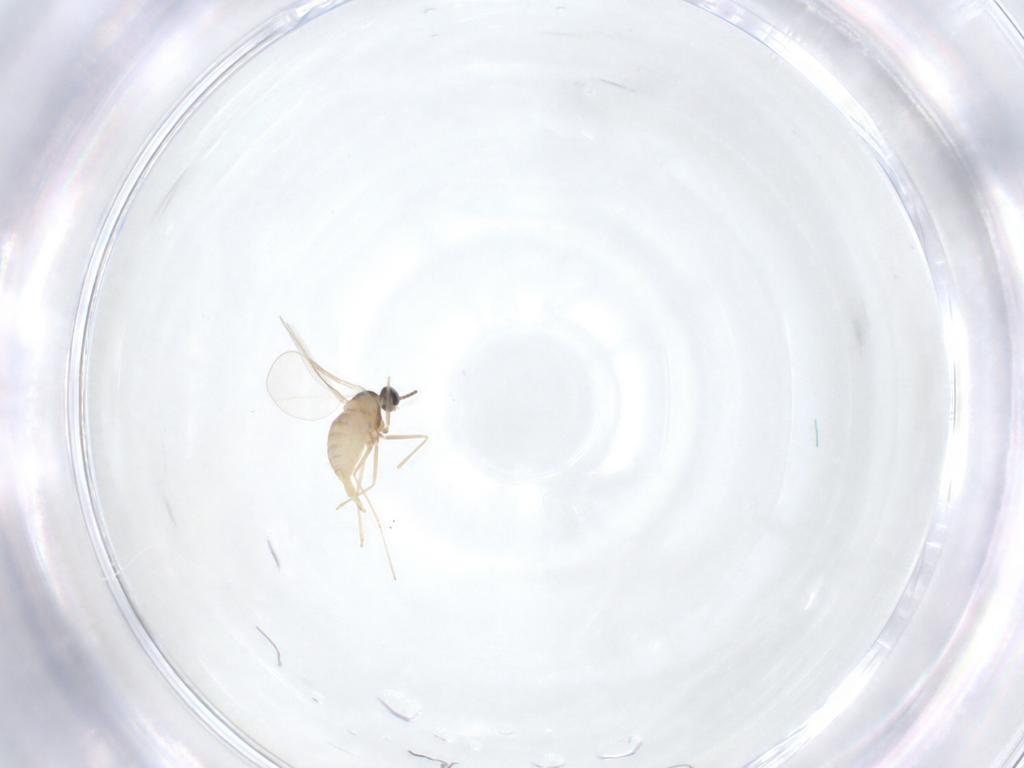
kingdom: Animalia
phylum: Arthropoda
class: Insecta
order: Diptera
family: Cecidomyiidae
